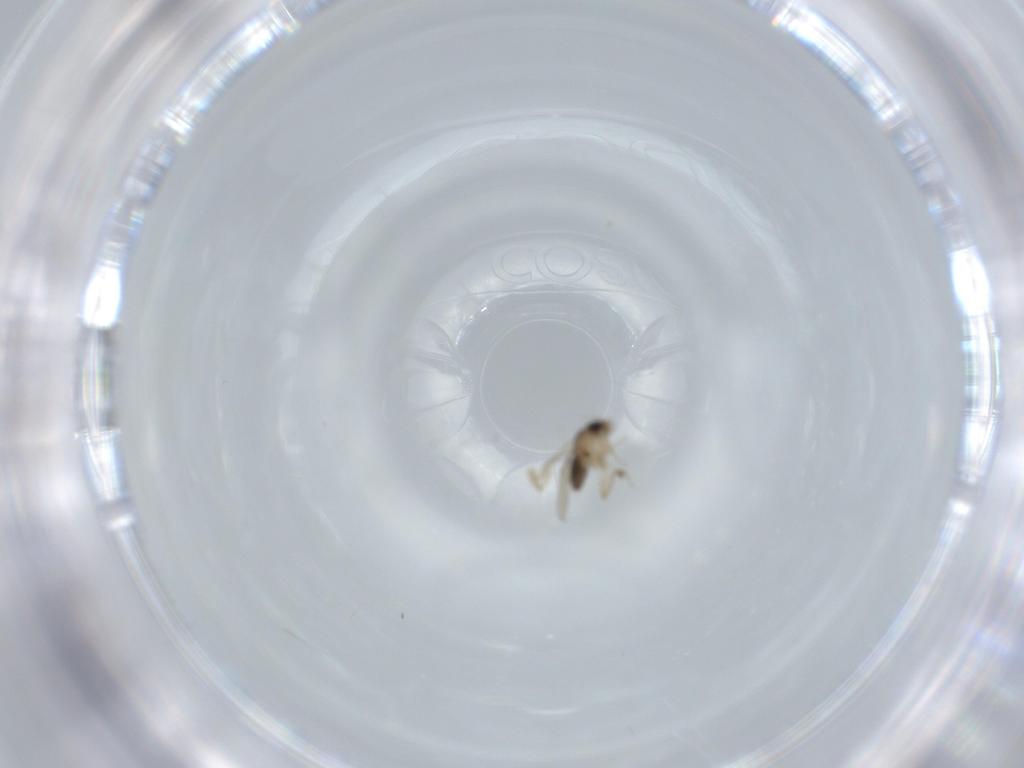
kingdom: Animalia
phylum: Arthropoda
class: Insecta
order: Diptera
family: Phoridae
